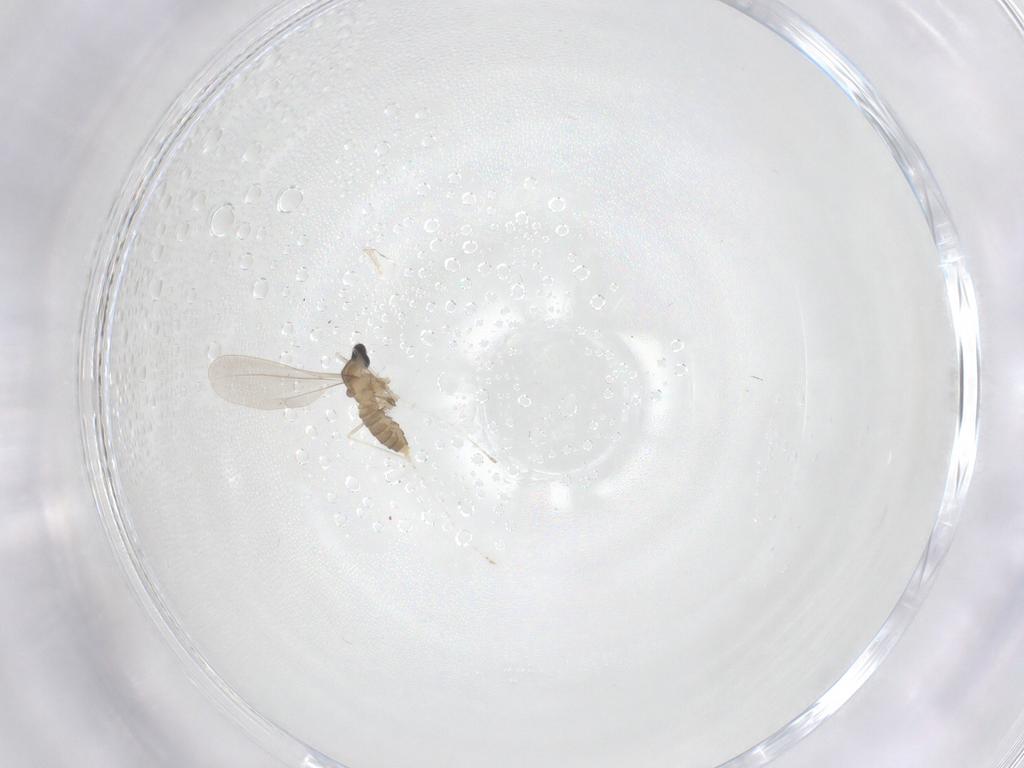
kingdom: Animalia
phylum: Arthropoda
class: Insecta
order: Diptera
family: Cecidomyiidae
